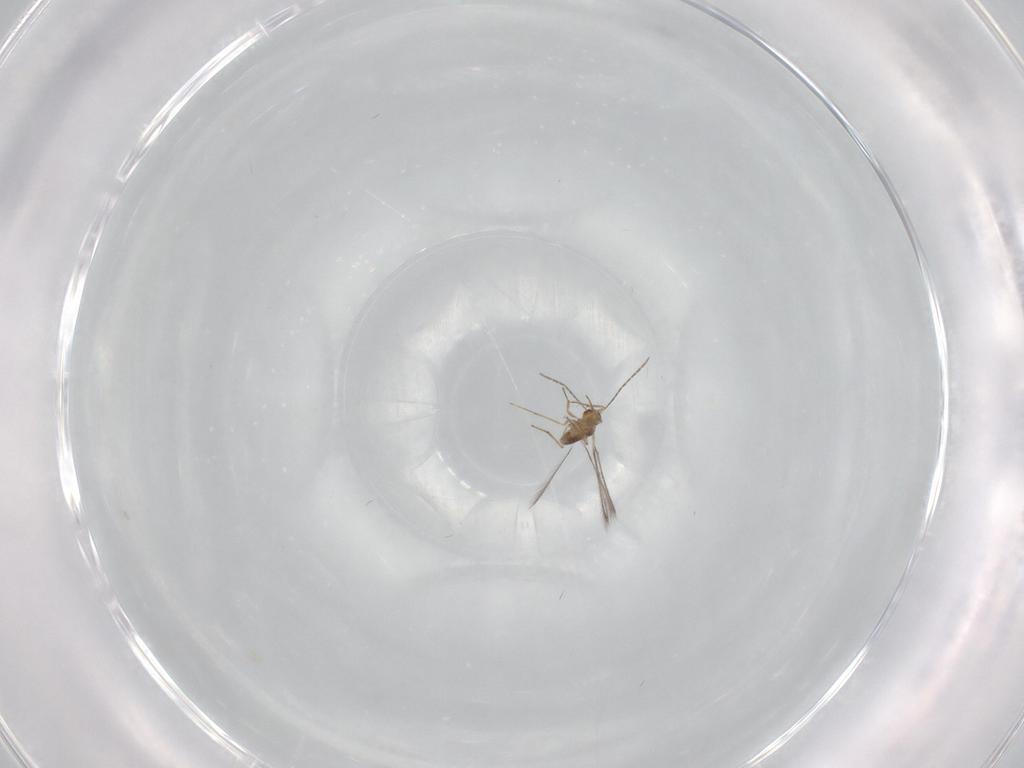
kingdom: Animalia
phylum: Arthropoda
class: Insecta
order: Hymenoptera
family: Mymaridae
